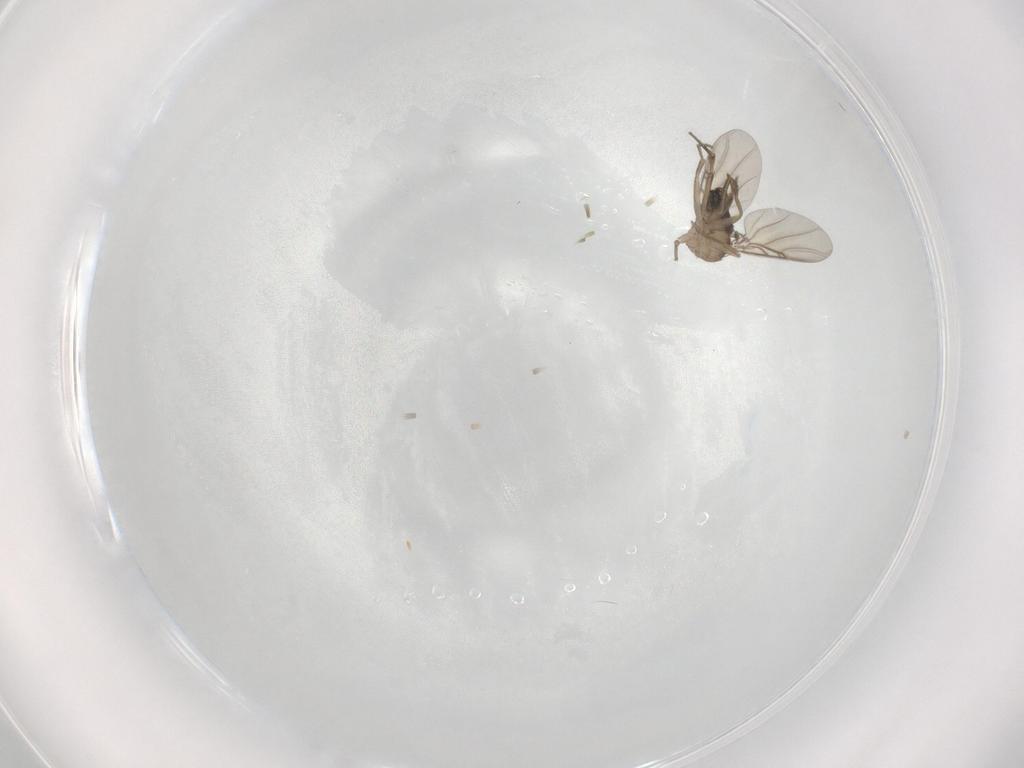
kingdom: Animalia
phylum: Arthropoda
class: Insecta
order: Diptera
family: Phoridae
